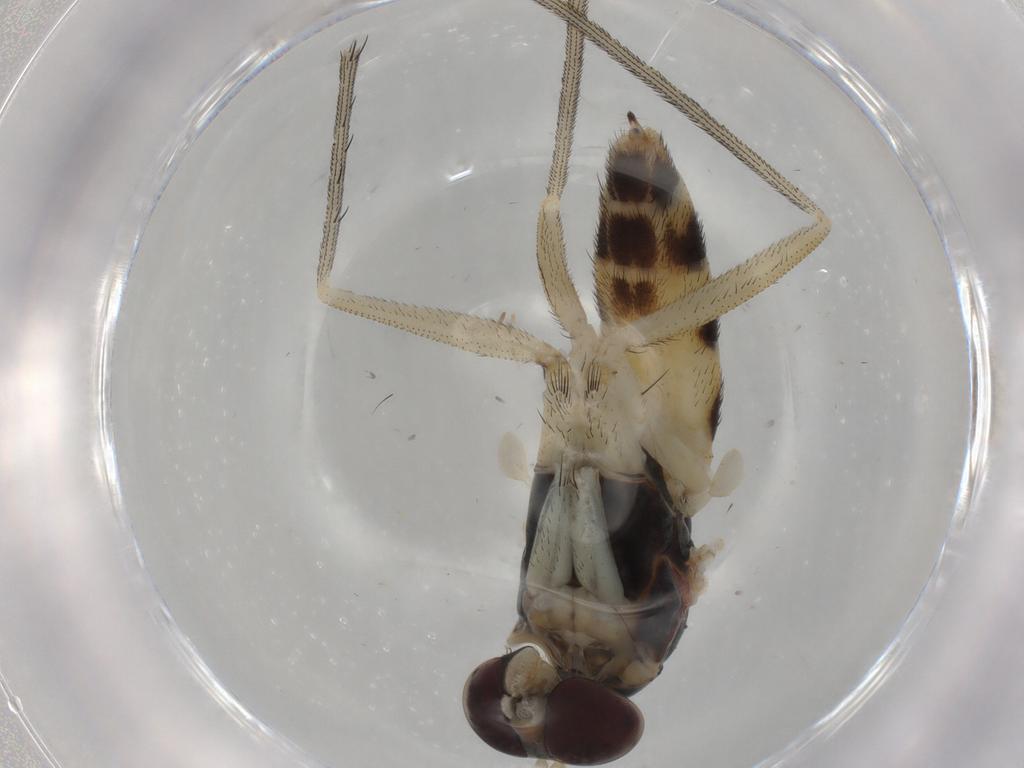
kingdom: Animalia
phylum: Arthropoda
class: Insecta
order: Diptera
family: Dolichopodidae
